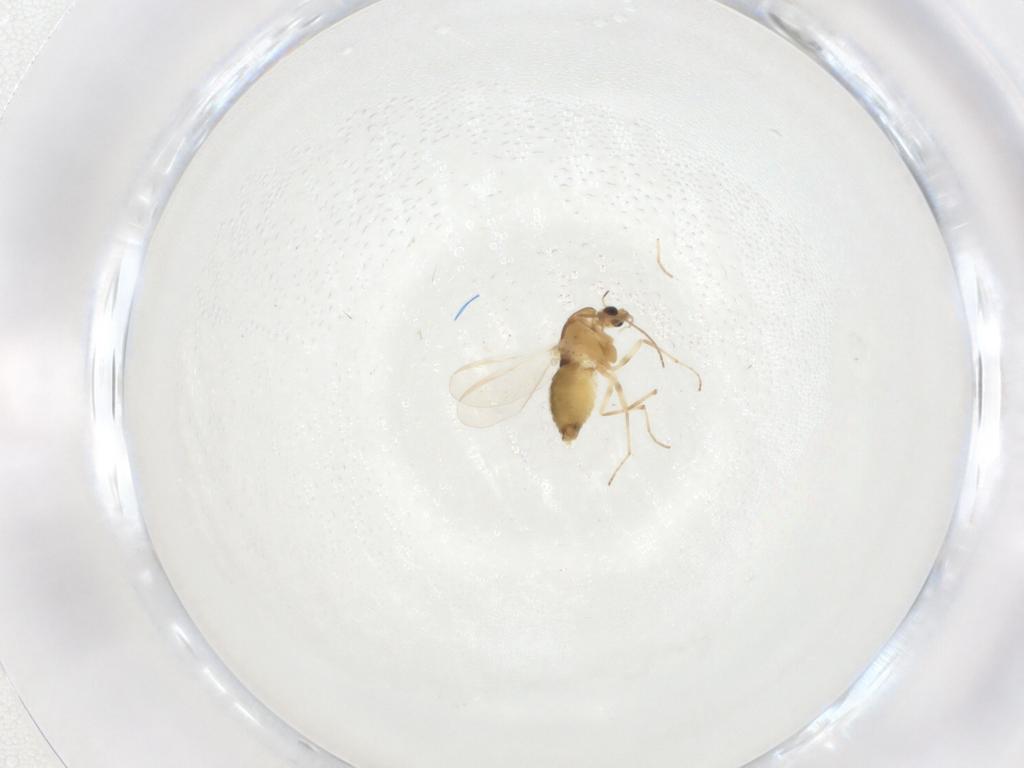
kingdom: Animalia
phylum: Arthropoda
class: Insecta
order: Diptera
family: Chironomidae
